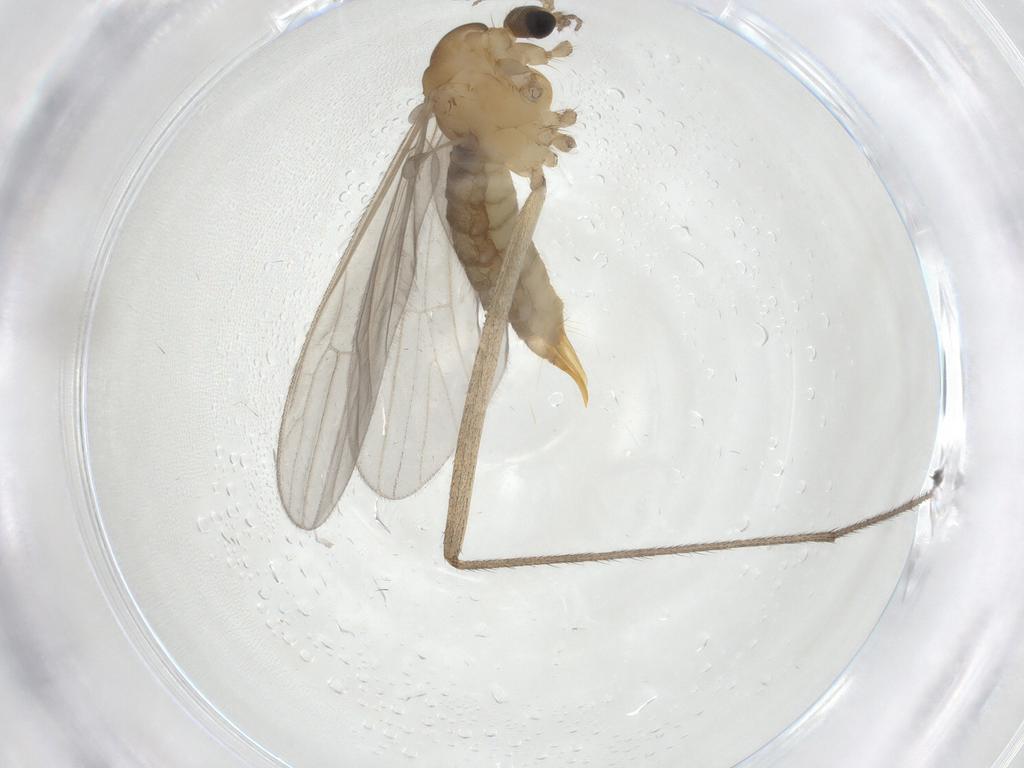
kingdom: Animalia
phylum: Arthropoda
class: Insecta
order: Diptera
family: Limoniidae
